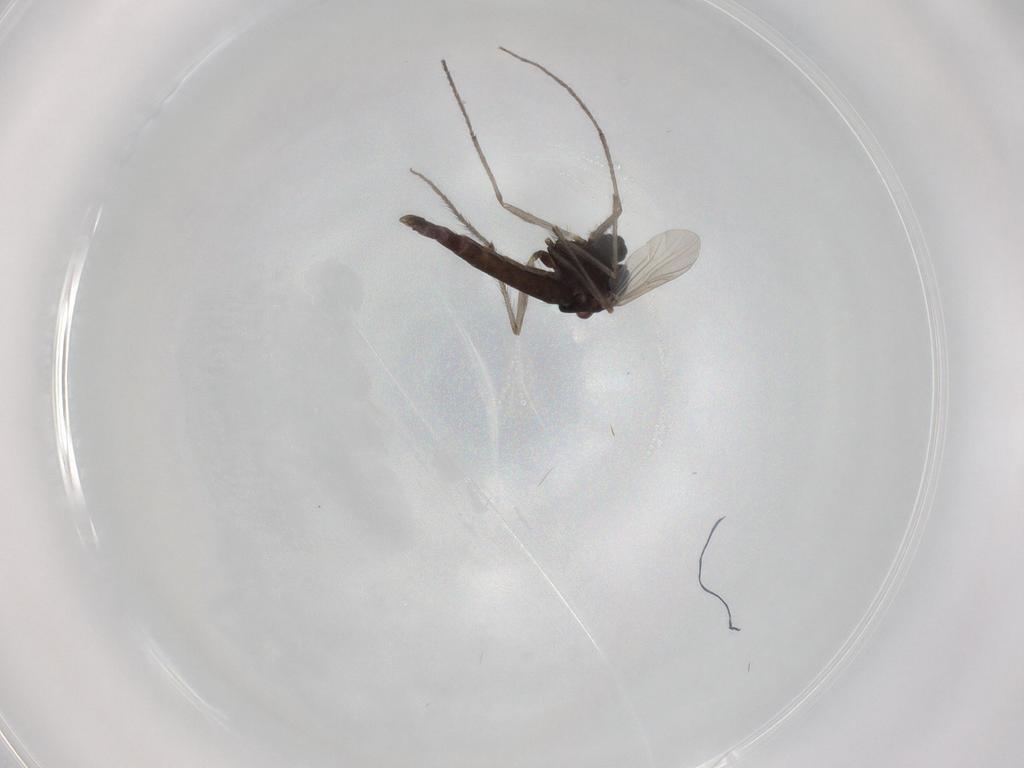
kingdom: Animalia
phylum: Arthropoda
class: Insecta
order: Diptera
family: Chironomidae
